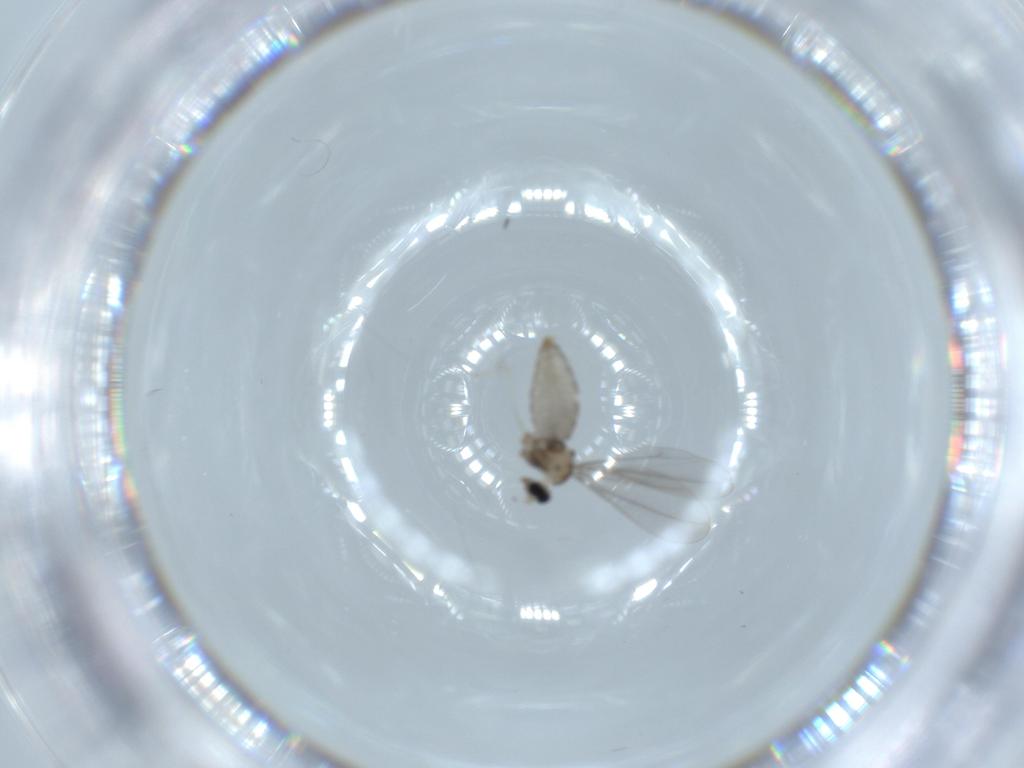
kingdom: Animalia
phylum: Arthropoda
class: Insecta
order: Diptera
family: Cecidomyiidae
